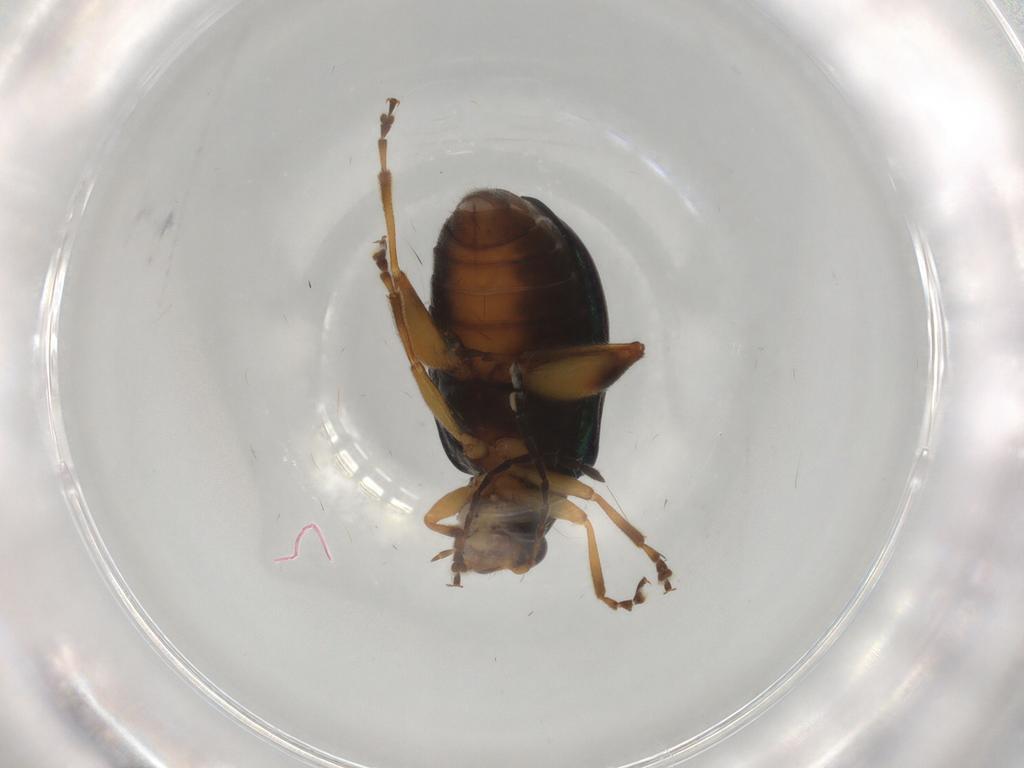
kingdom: Animalia
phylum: Arthropoda
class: Insecta
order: Coleoptera
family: Chrysomelidae
